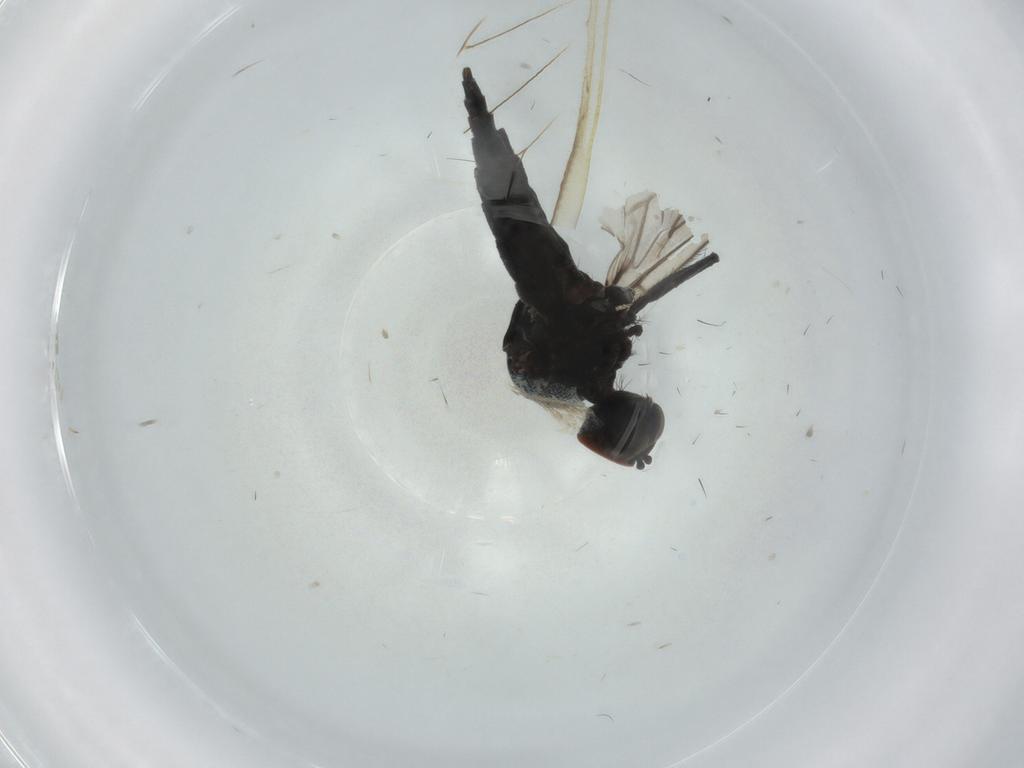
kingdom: Animalia
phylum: Arthropoda
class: Insecta
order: Diptera
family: Hybotidae
